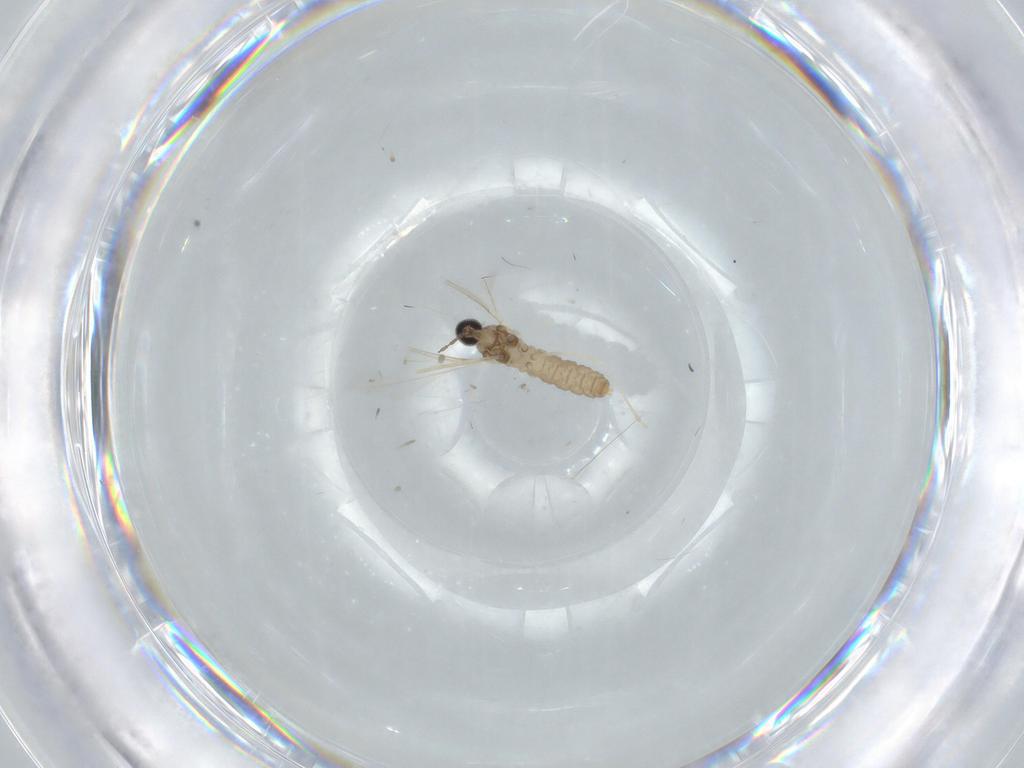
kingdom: Animalia
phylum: Arthropoda
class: Insecta
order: Diptera
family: Cecidomyiidae
